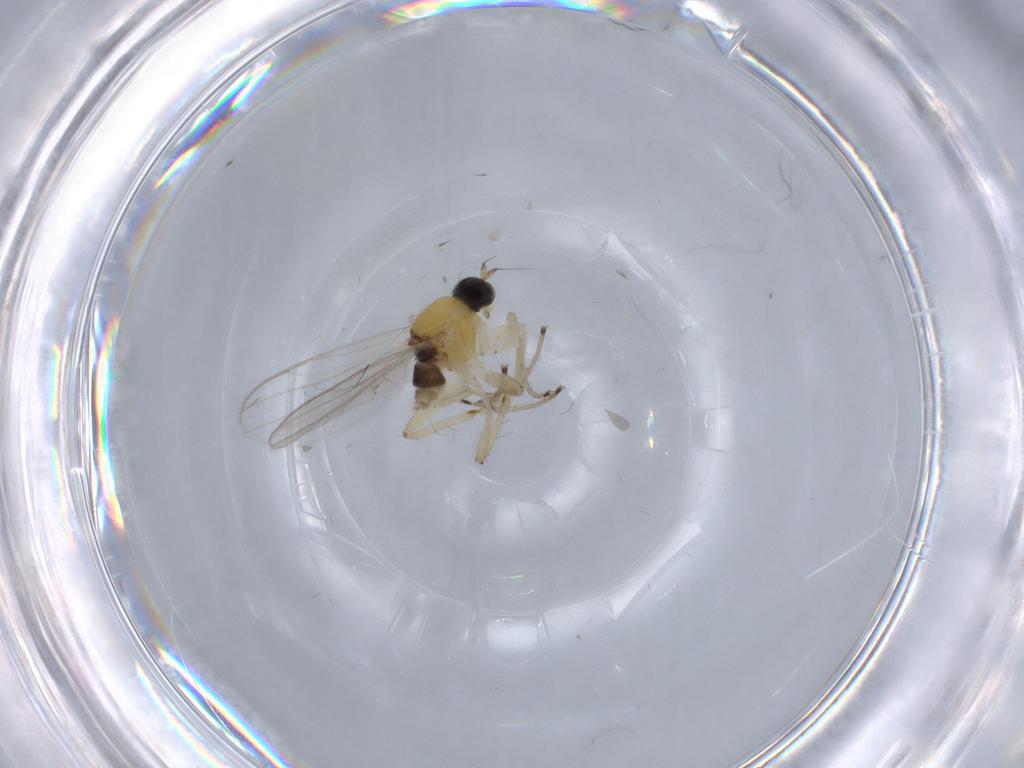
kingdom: Animalia
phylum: Arthropoda
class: Insecta
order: Diptera
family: Hybotidae
